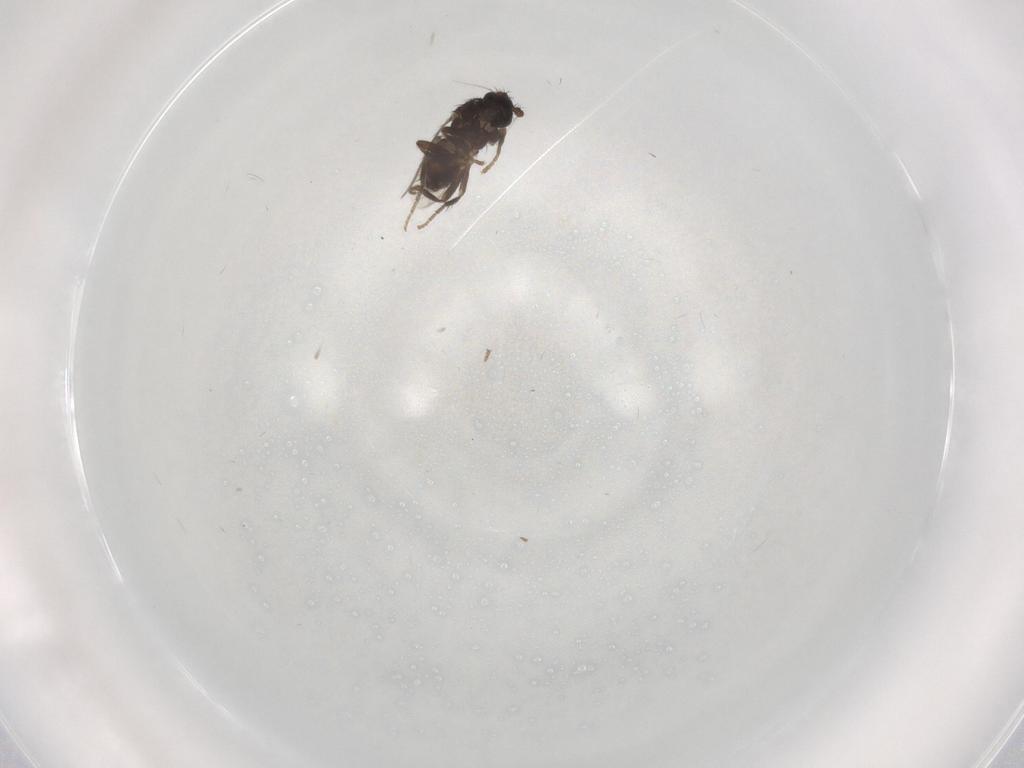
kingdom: Animalia
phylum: Arthropoda
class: Insecta
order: Diptera
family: Sphaeroceridae
